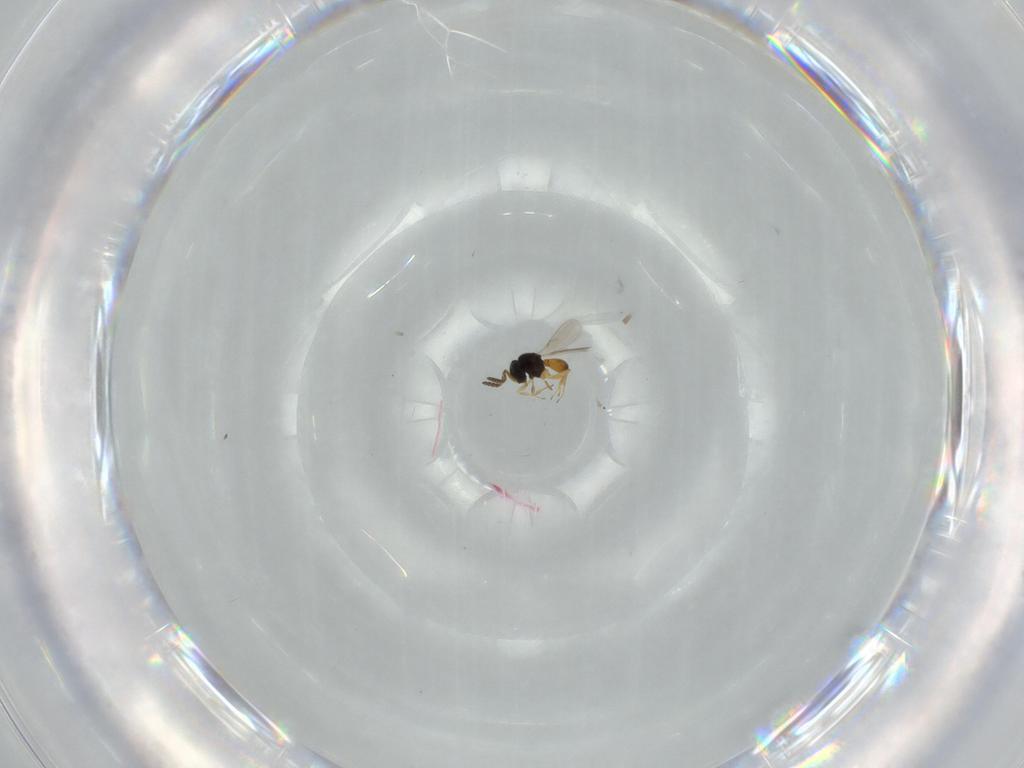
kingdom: Animalia
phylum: Arthropoda
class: Insecta
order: Hymenoptera
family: Scelionidae
